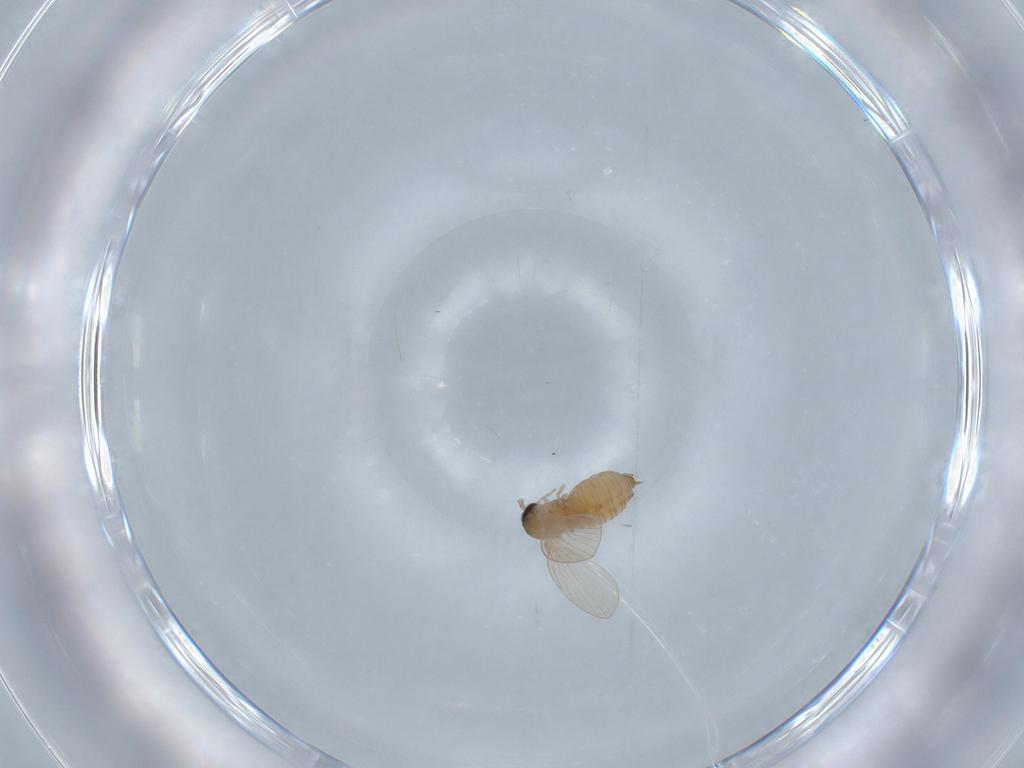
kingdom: Animalia
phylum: Arthropoda
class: Insecta
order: Diptera
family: Psychodidae
